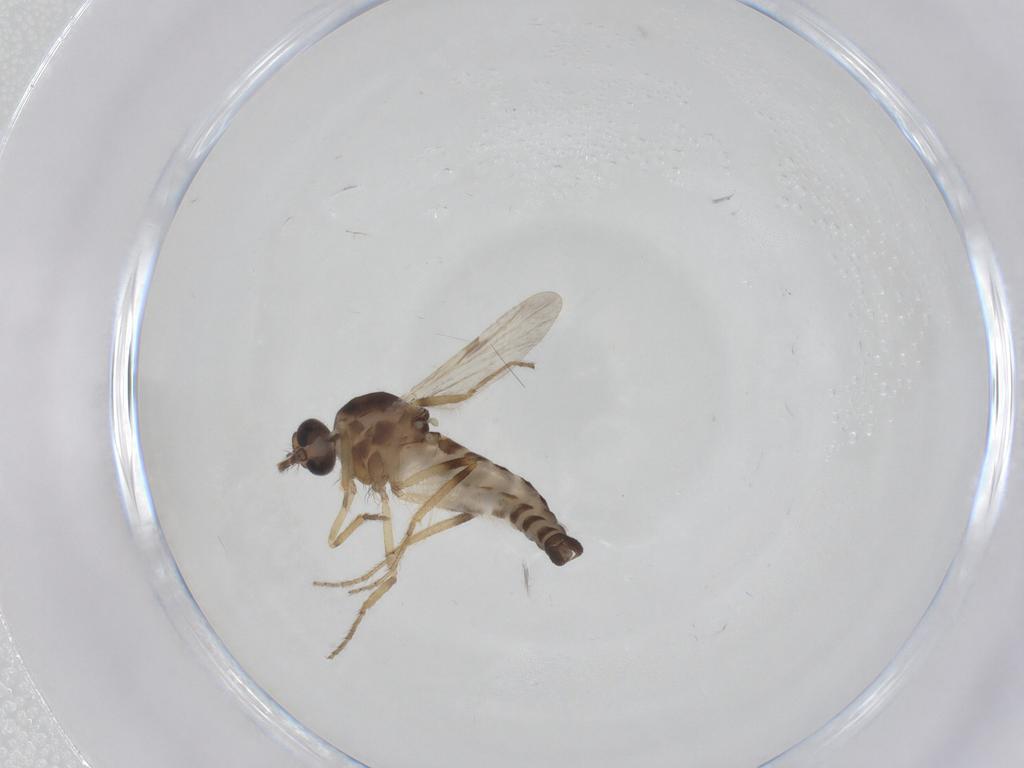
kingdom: Animalia
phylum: Arthropoda
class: Insecta
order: Diptera
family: Ceratopogonidae
